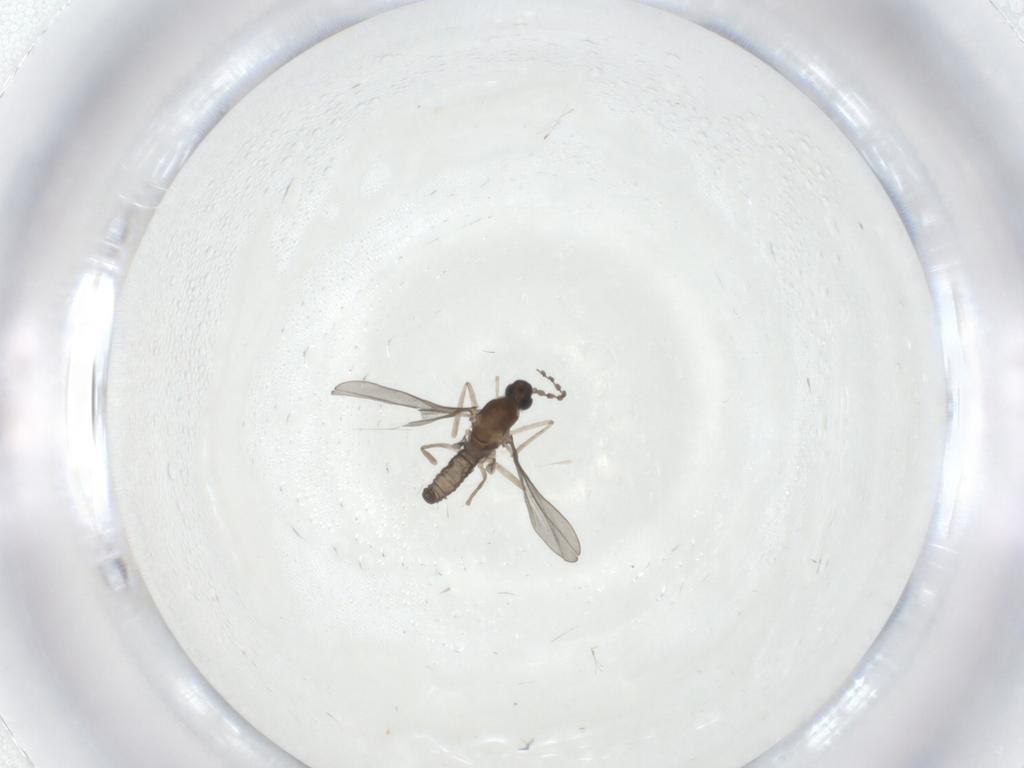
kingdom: Animalia
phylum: Arthropoda
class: Insecta
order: Diptera
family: Cecidomyiidae
